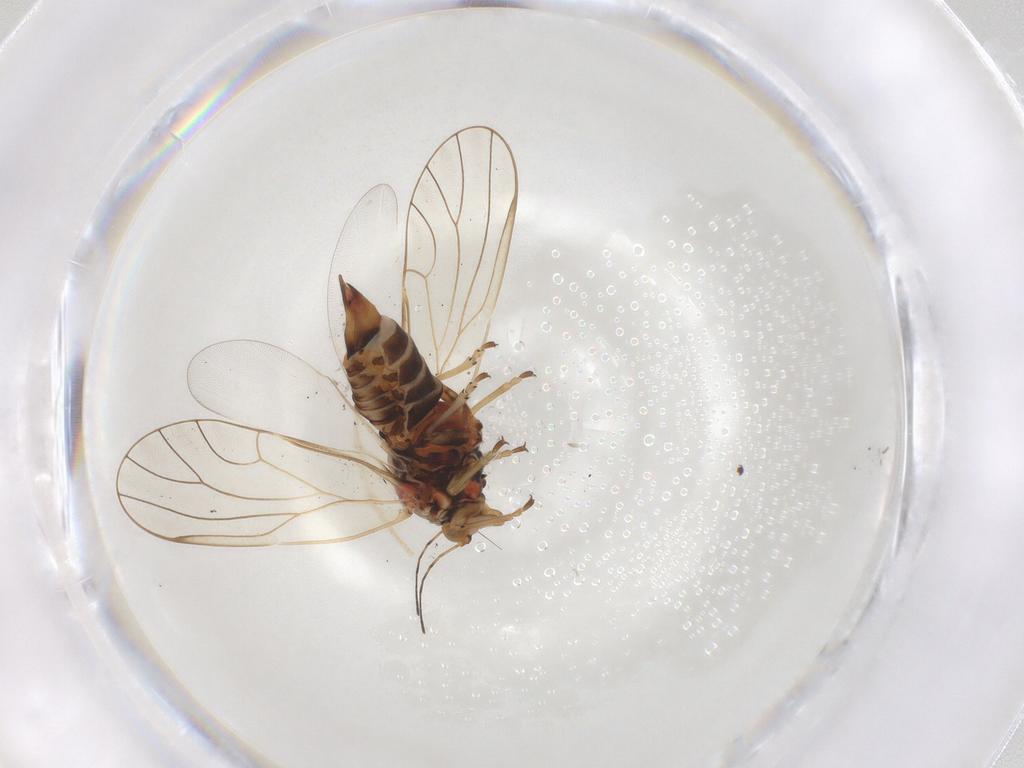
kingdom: Animalia
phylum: Arthropoda
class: Insecta
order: Hemiptera
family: Psyllidae
